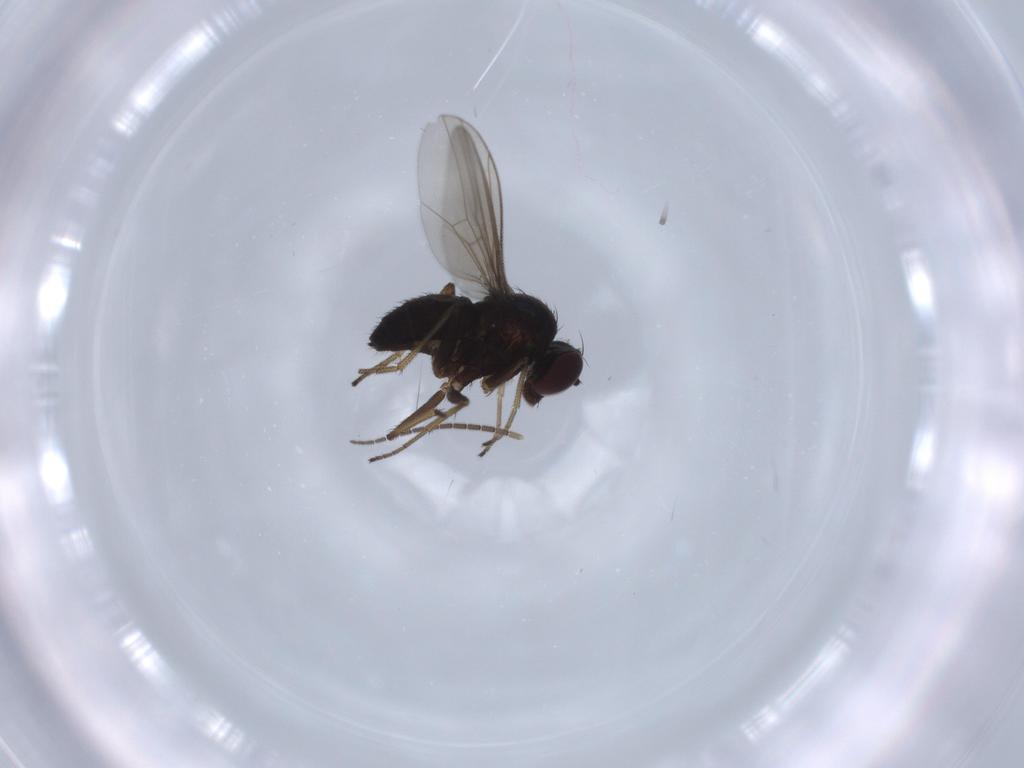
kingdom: Animalia
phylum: Arthropoda
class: Insecta
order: Diptera
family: Dolichopodidae
